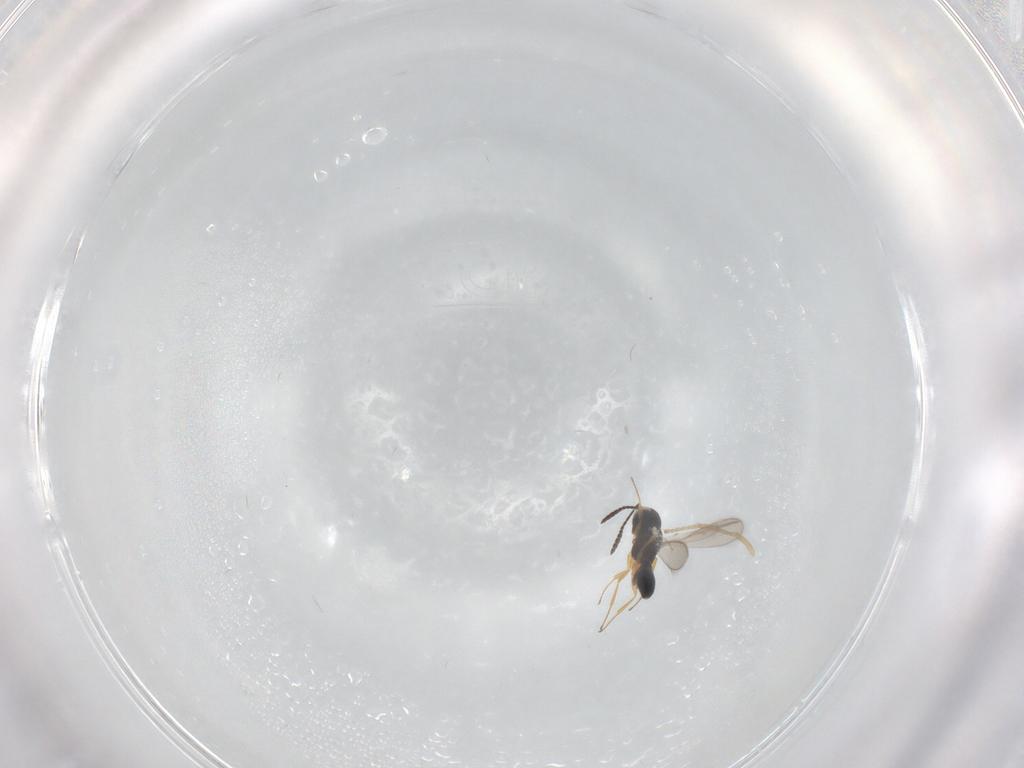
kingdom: Animalia
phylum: Arthropoda
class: Insecta
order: Hymenoptera
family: Scelionidae
